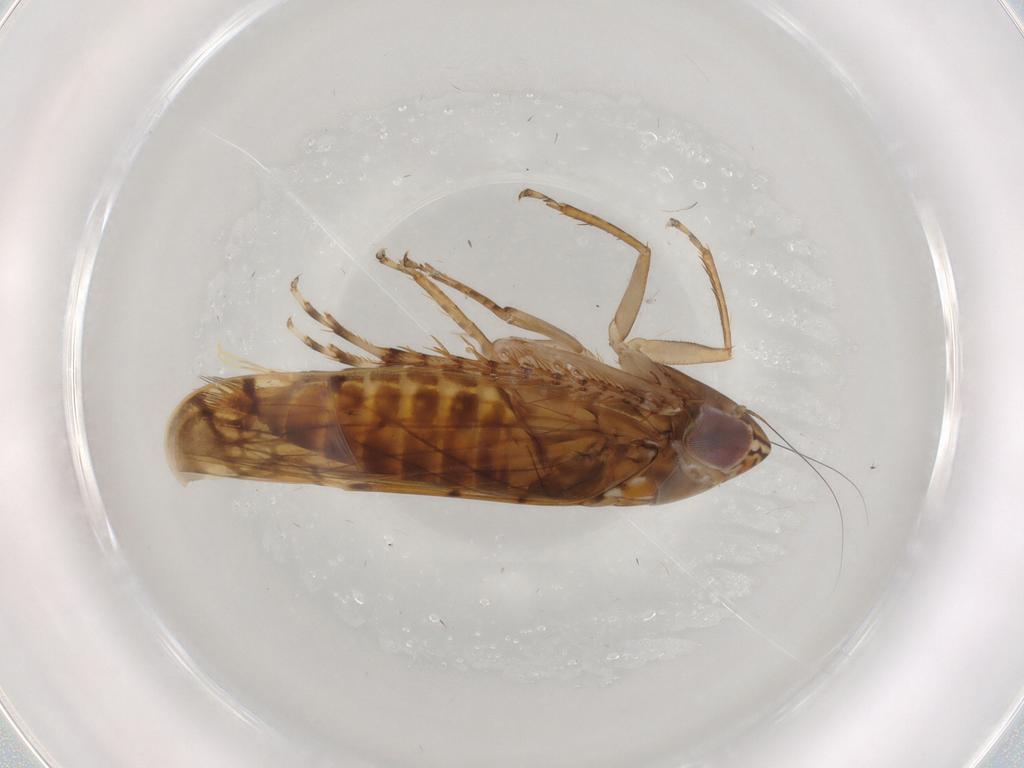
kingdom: Animalia
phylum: Arthropoda
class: Insecta
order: Hemiptera
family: Cicadellidae
